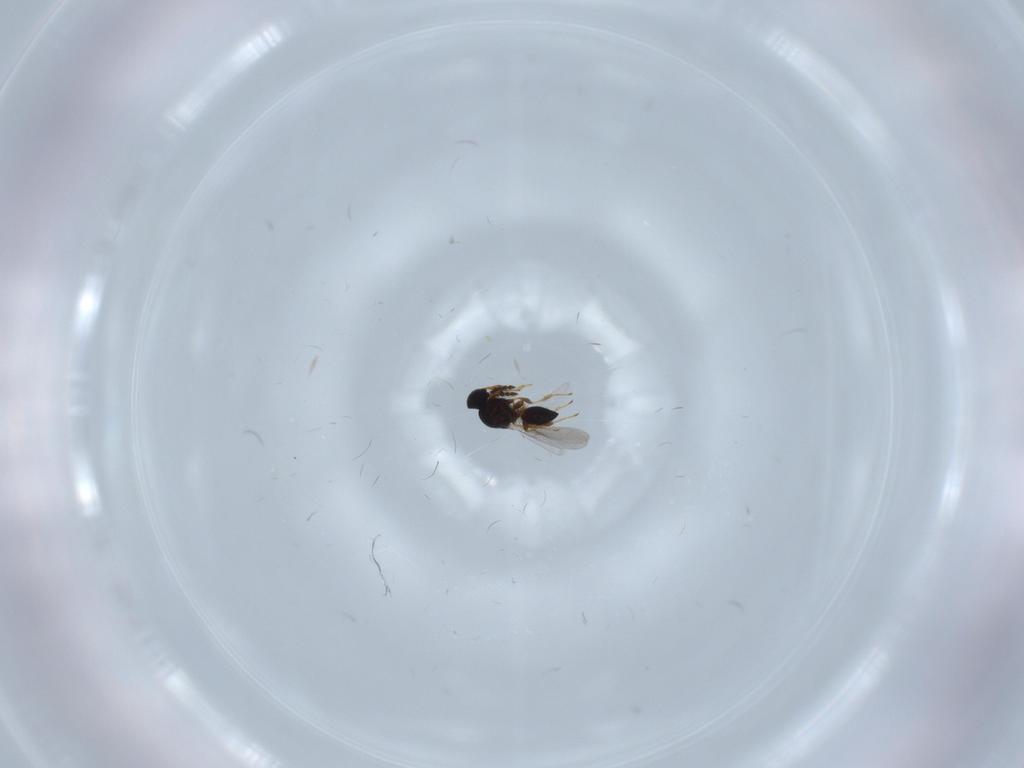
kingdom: Animalia
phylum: Arthropoda
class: Insecta
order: Hymenoptera
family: Platygastridae
